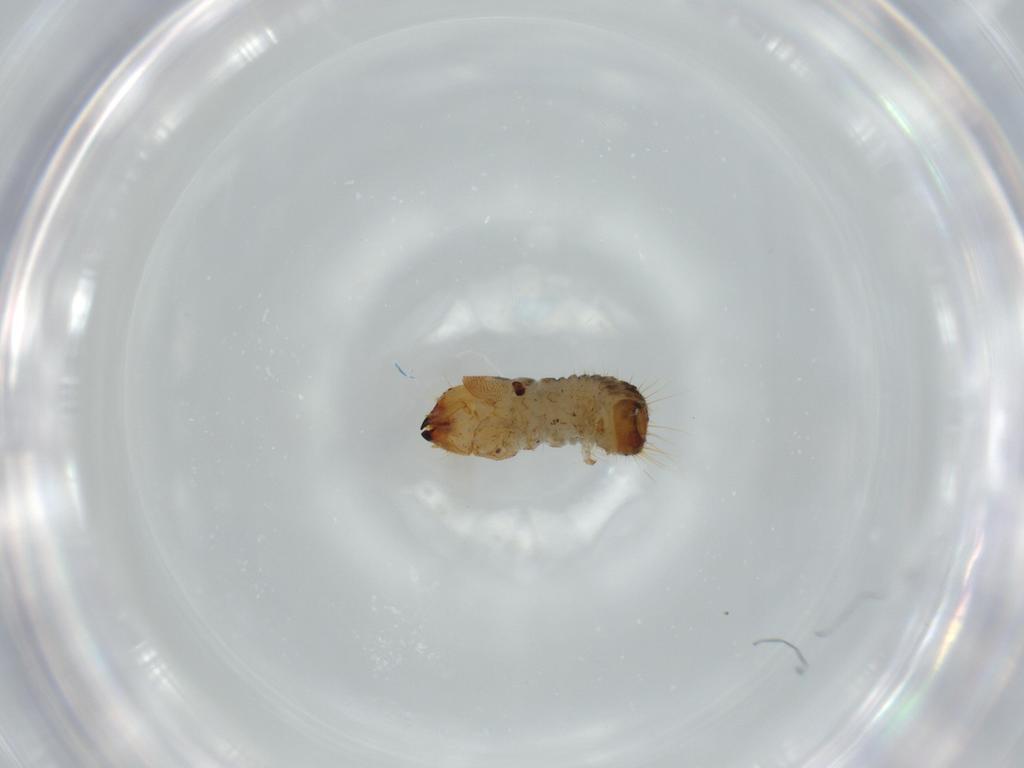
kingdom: Animalia
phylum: Arthropoda
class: Insecta
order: Coleoptera
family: Lymexylidae
